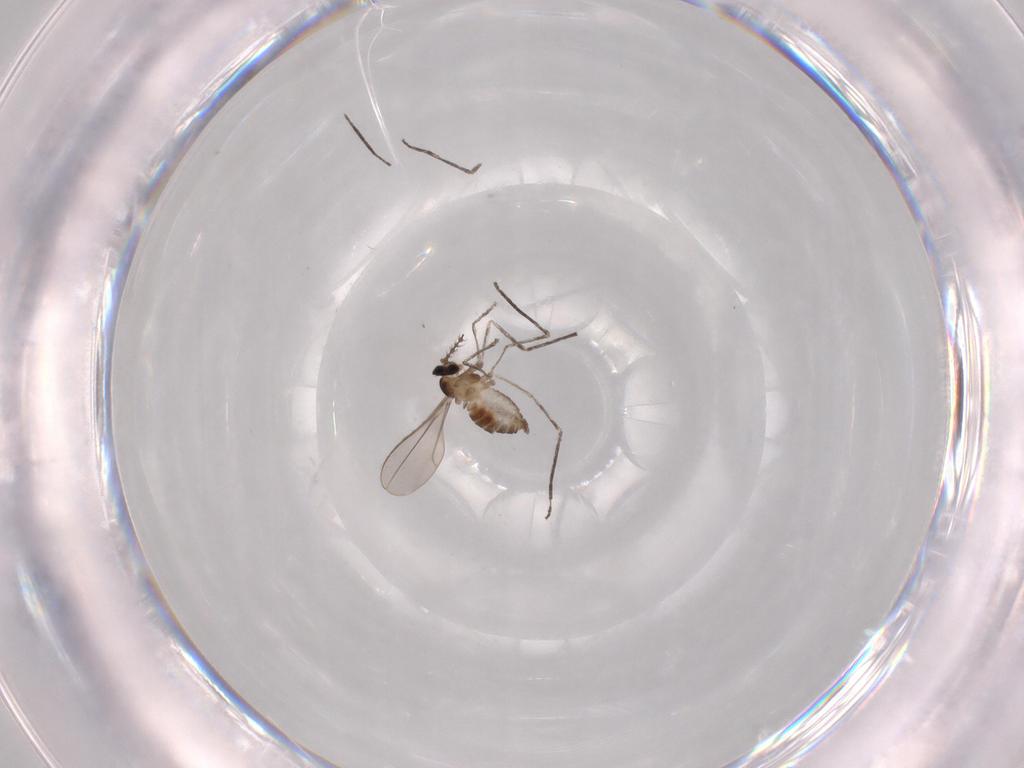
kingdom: Animalia
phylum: Arthropoda
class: Insecta
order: Diptera
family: Cecidomyiidae
